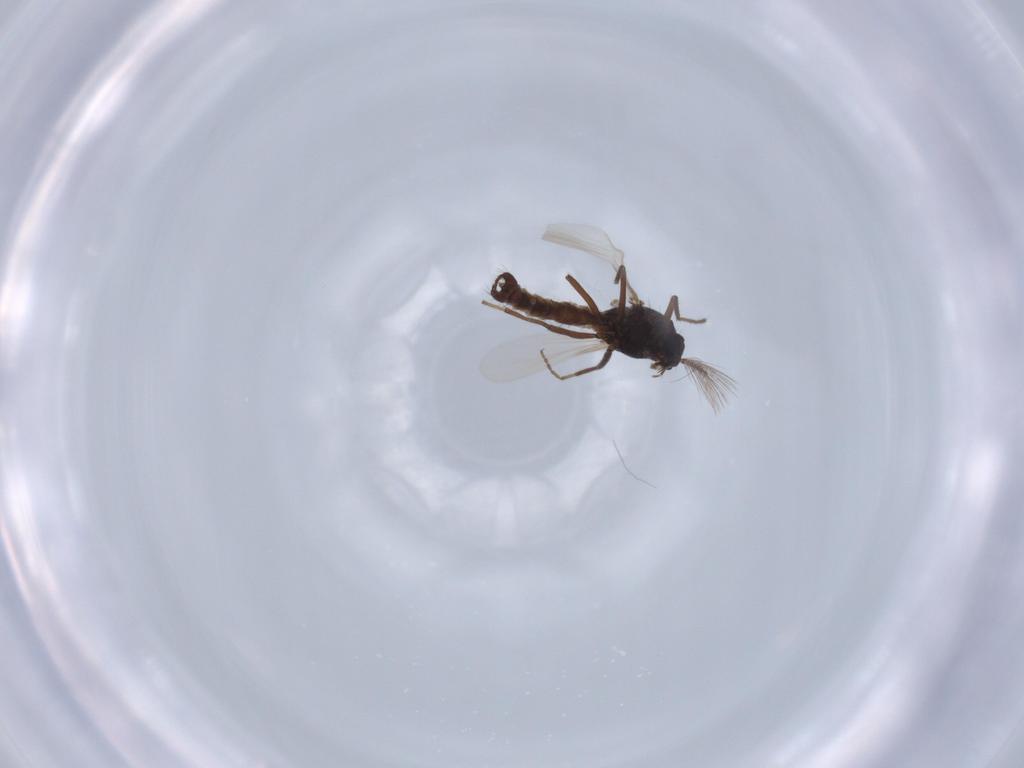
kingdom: Animalia
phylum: Arthropoda
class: Insecta
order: Diptera
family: Ceratopogonidae
